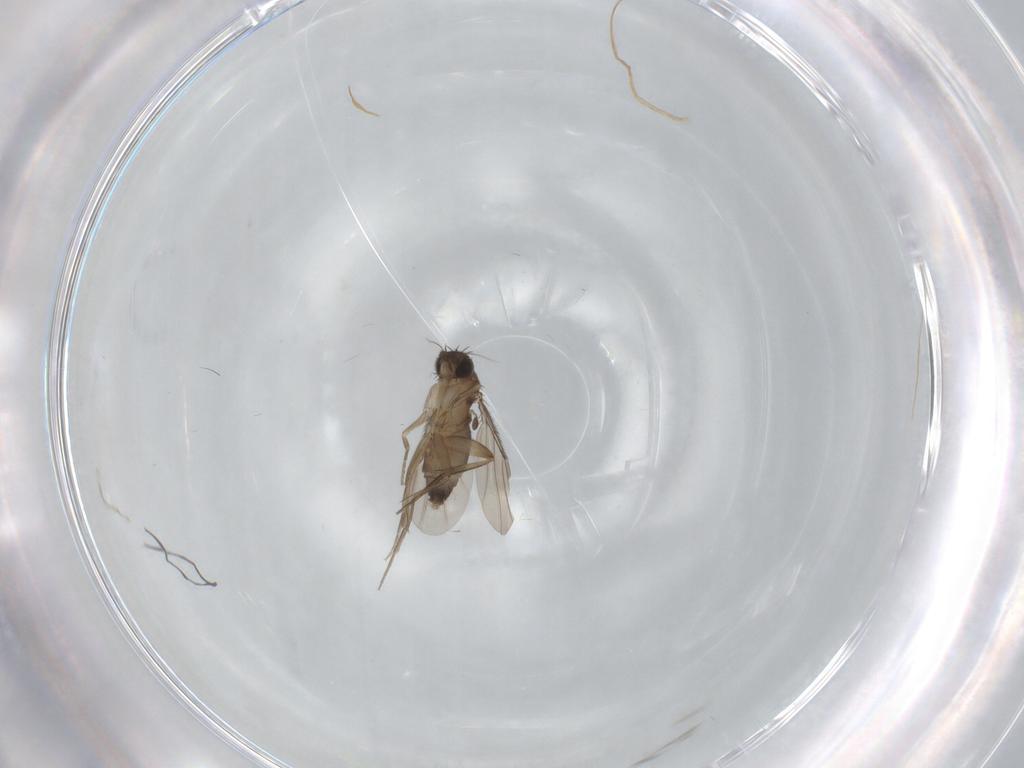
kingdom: Animalia
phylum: Arthropoda
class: Insecta
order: Diptera
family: Phoridae
